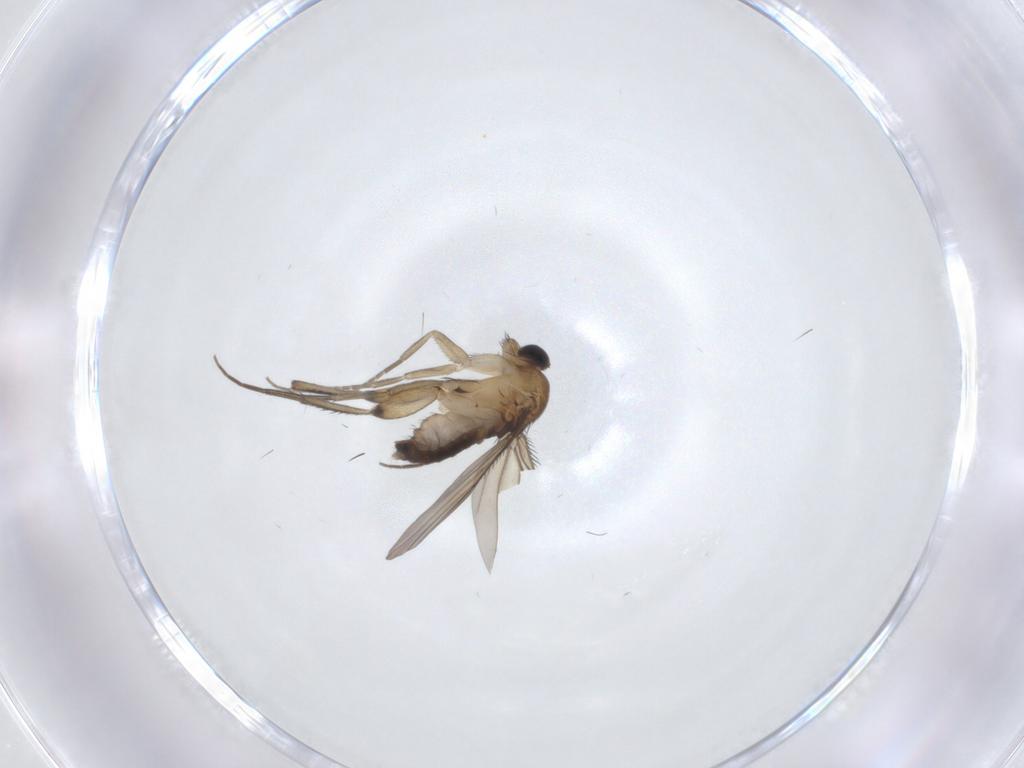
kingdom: Animalia
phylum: Arthropoda
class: Insecta
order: Diptera
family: Phoridae
